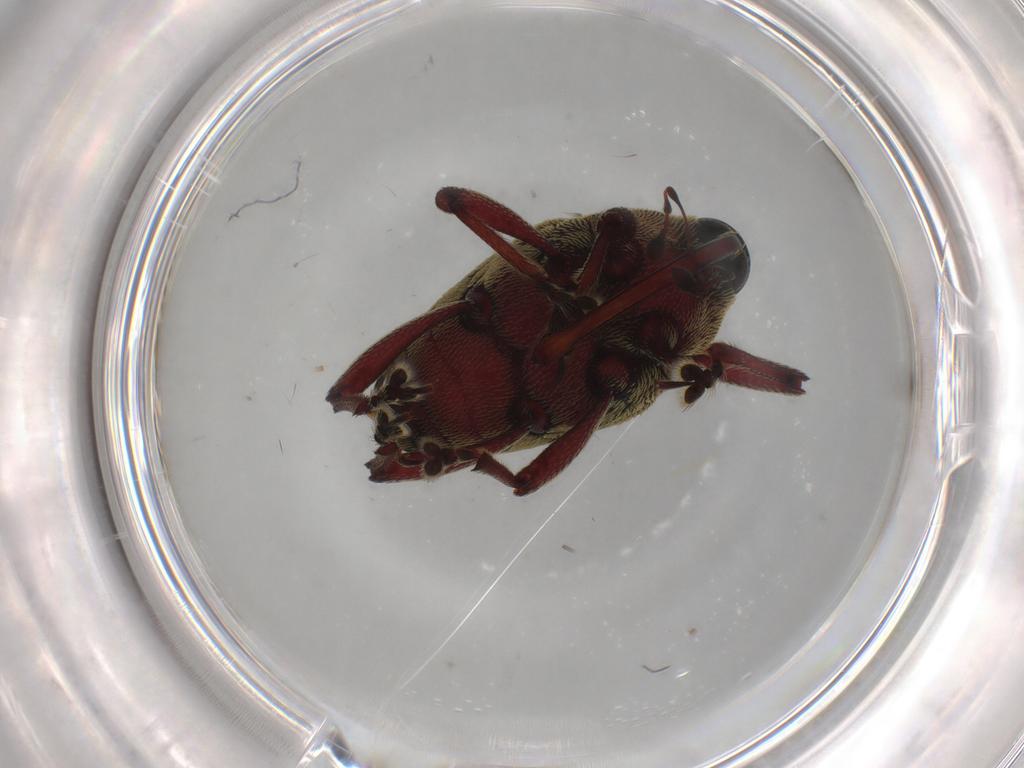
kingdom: Animalia
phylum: Arthropoda
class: Insecta
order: Coleoptera
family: Curculionidae
